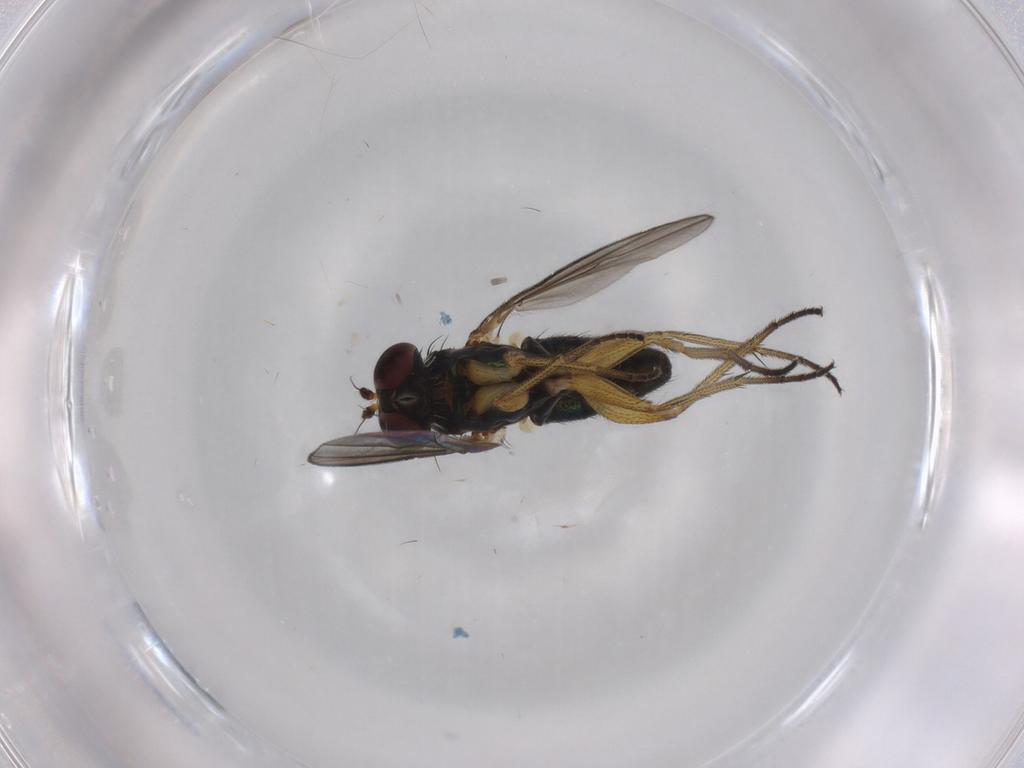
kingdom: Animalia
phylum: Arthropoda
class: Insecta
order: Diptera
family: Dolichopodidae
